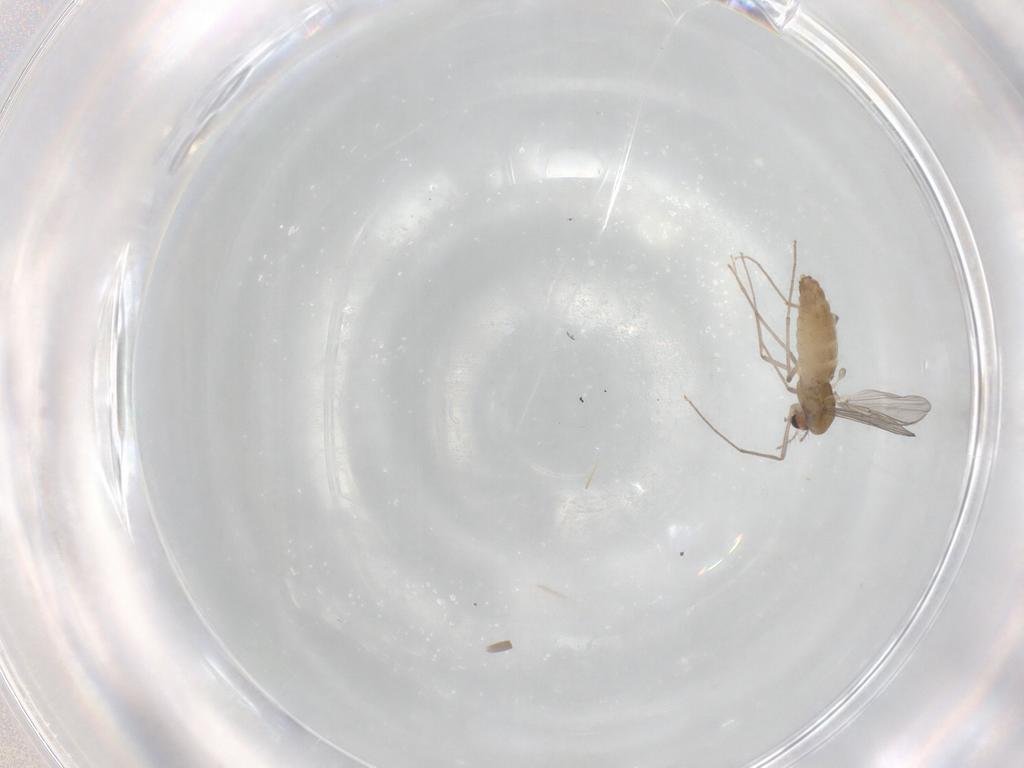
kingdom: Animalia
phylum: Arthropoda
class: Insecta
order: Diptera
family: Chironomidae
